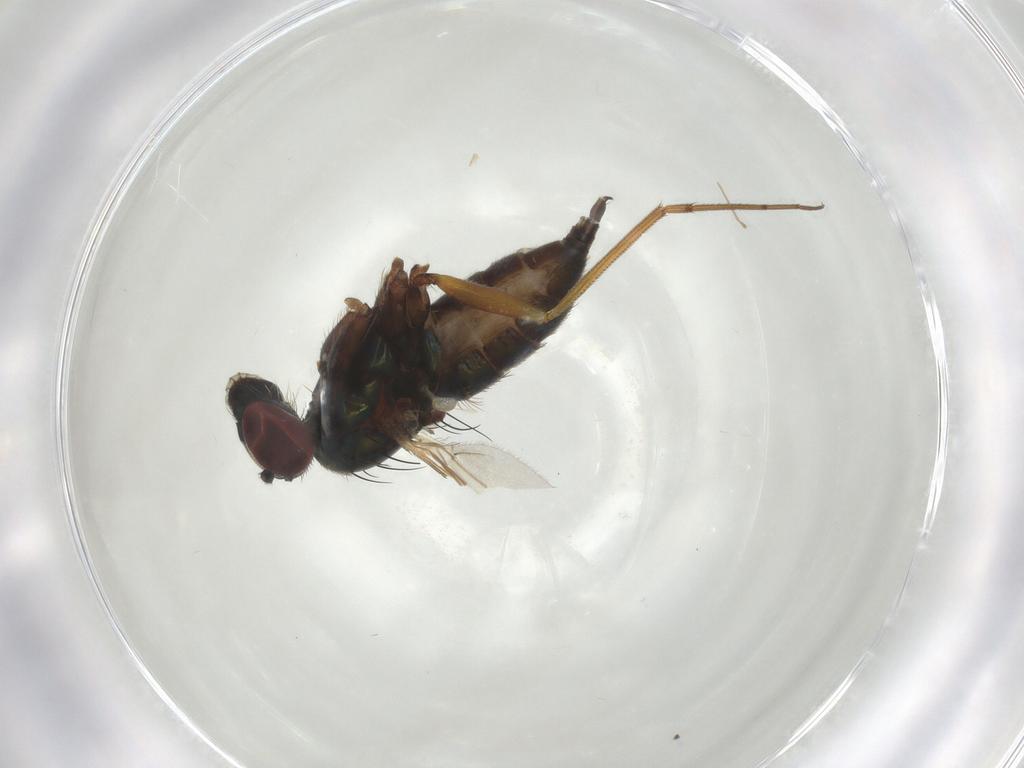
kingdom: Animalia
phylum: Arthropoda
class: Insecta
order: Diptera
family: Dolichopodidae
